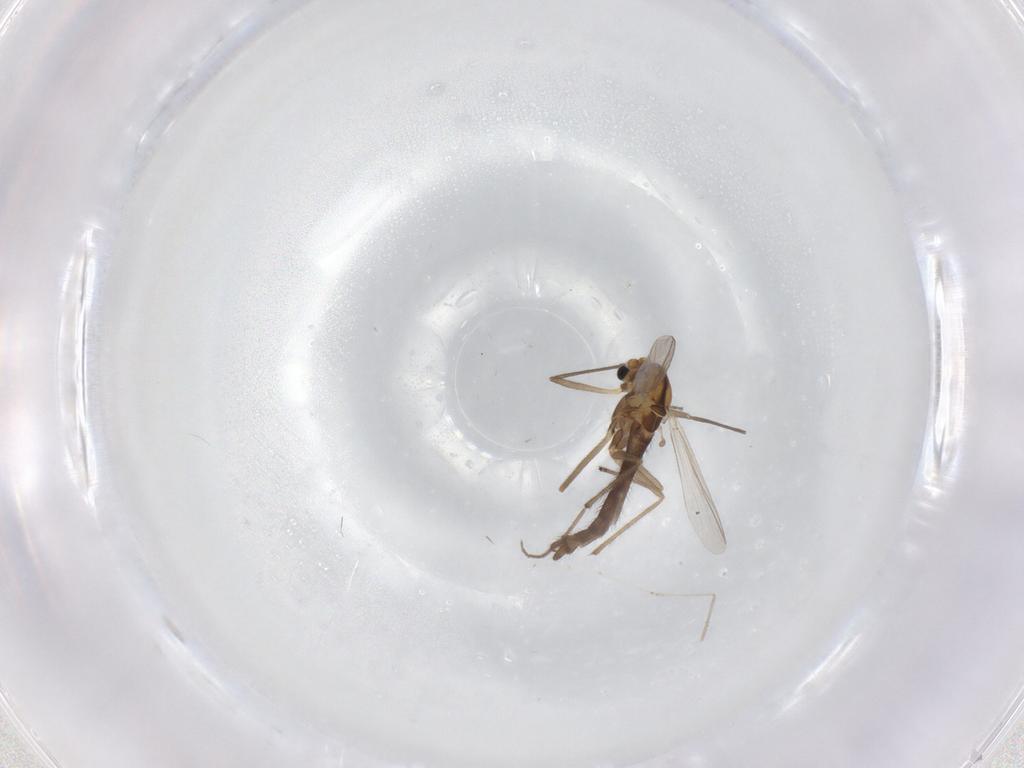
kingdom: Animalia
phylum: Arthropoda
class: Insecta
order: Diptera
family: Chironomidae
